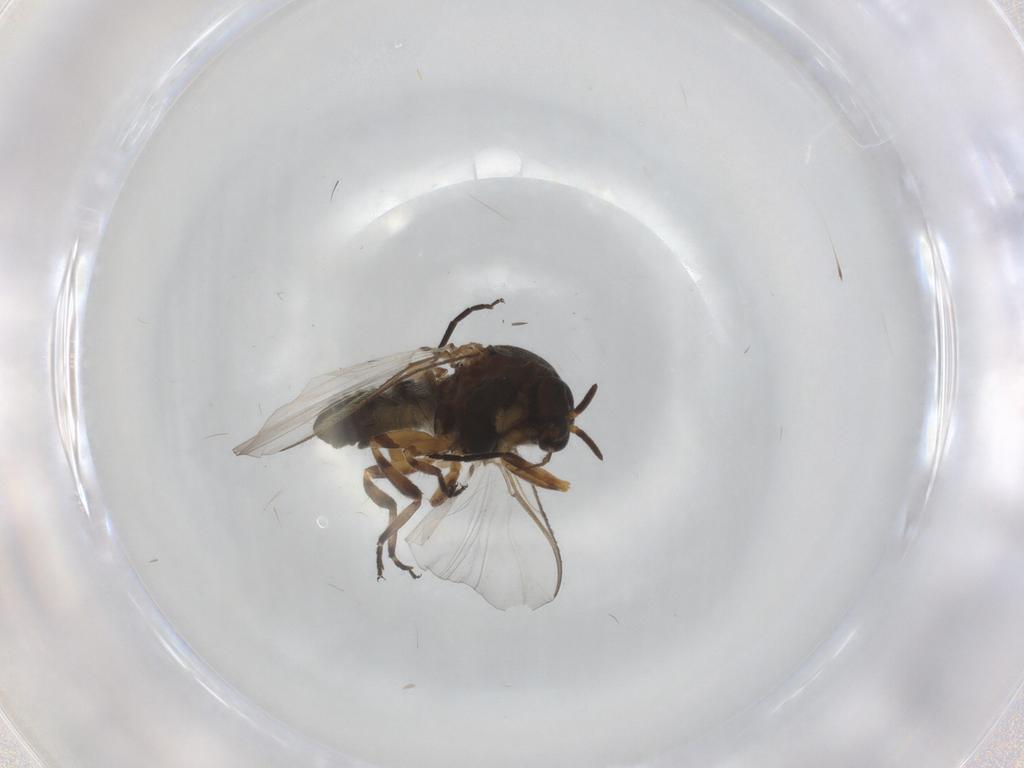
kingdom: Animalia
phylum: Arthropoda
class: Insecta
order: Diptera
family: Simuliidae
